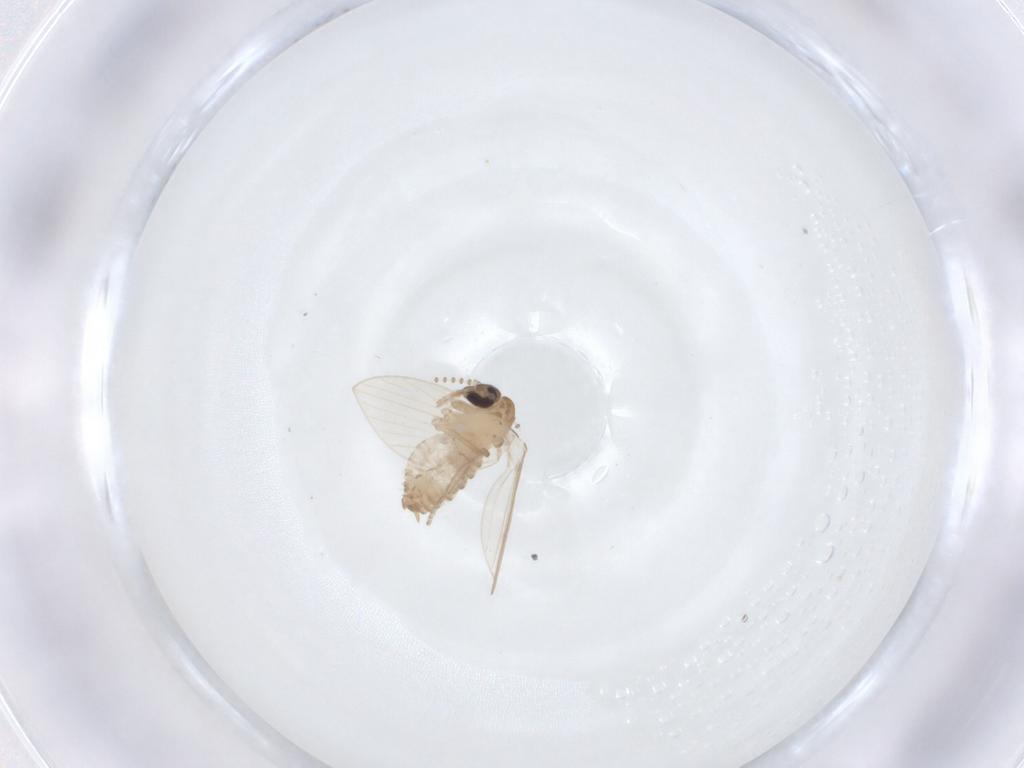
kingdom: Animalia
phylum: Arthropoda
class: Insecta
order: Diptera
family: Psychodidae
